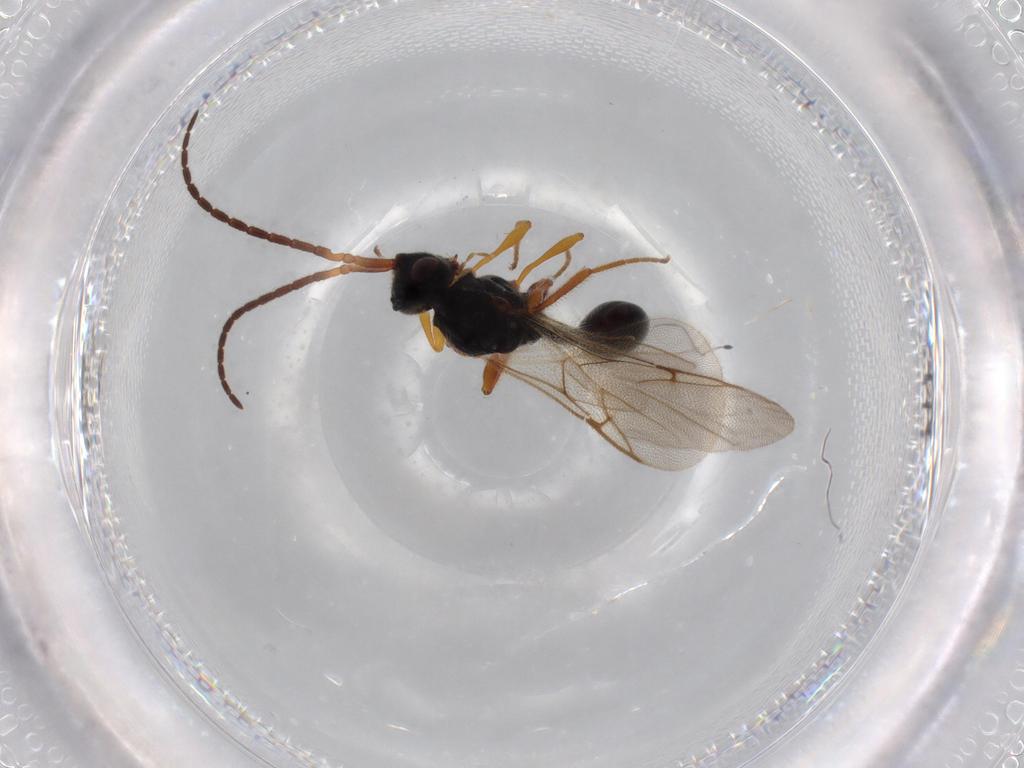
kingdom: Animalia
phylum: Arthropoda
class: Insecta
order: Hymenoptera
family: Diapriidae
